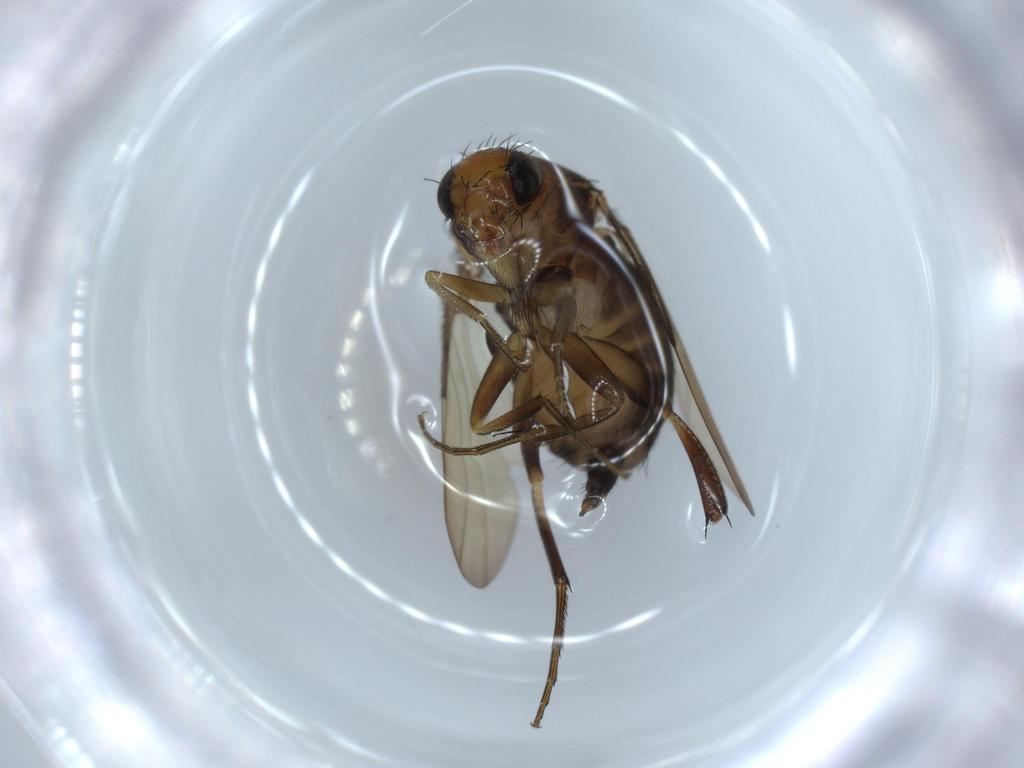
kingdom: Animalia
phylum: Arthropoda
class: Insecta
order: Diptera
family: Phoridae
